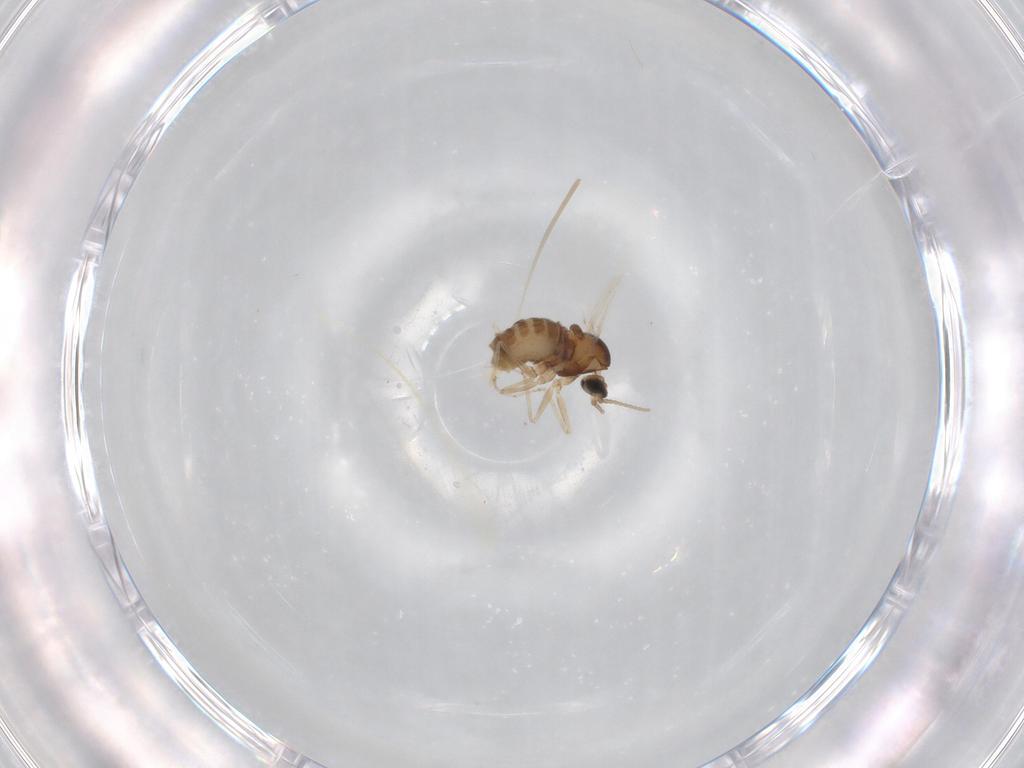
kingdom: Animalia
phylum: Arthropoda
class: Insecta
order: Diptera
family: Cecidomyiidae
